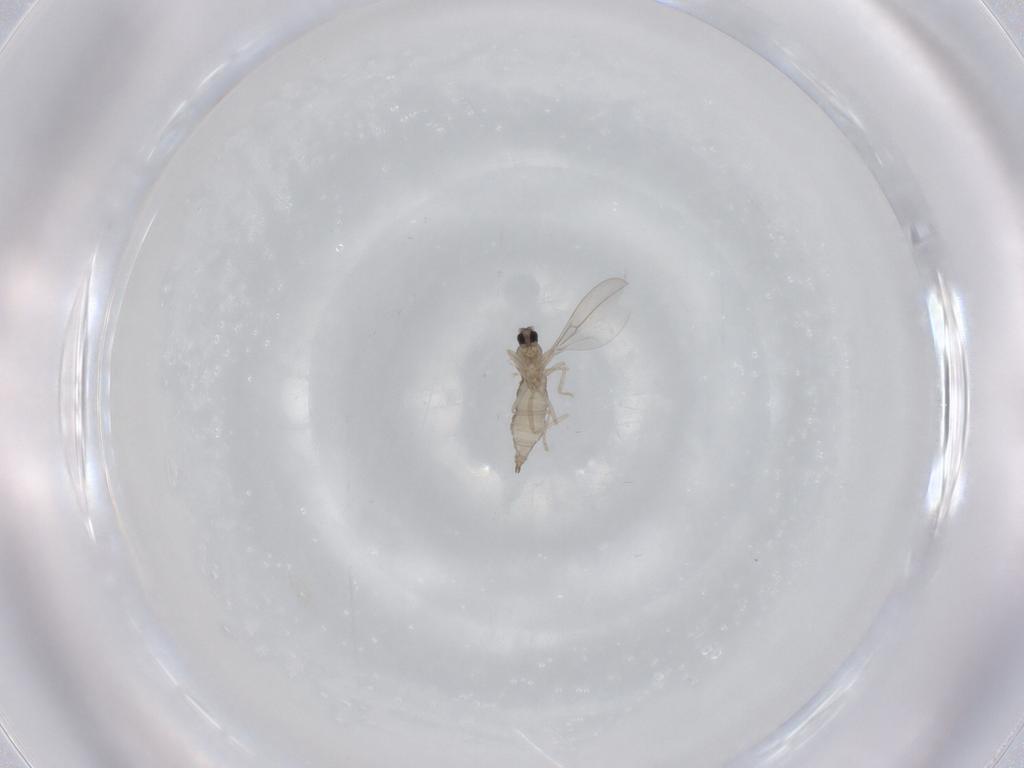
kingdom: Animalia
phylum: Arthropoda
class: Insecta
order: Diptera
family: Cecidomyiidae
